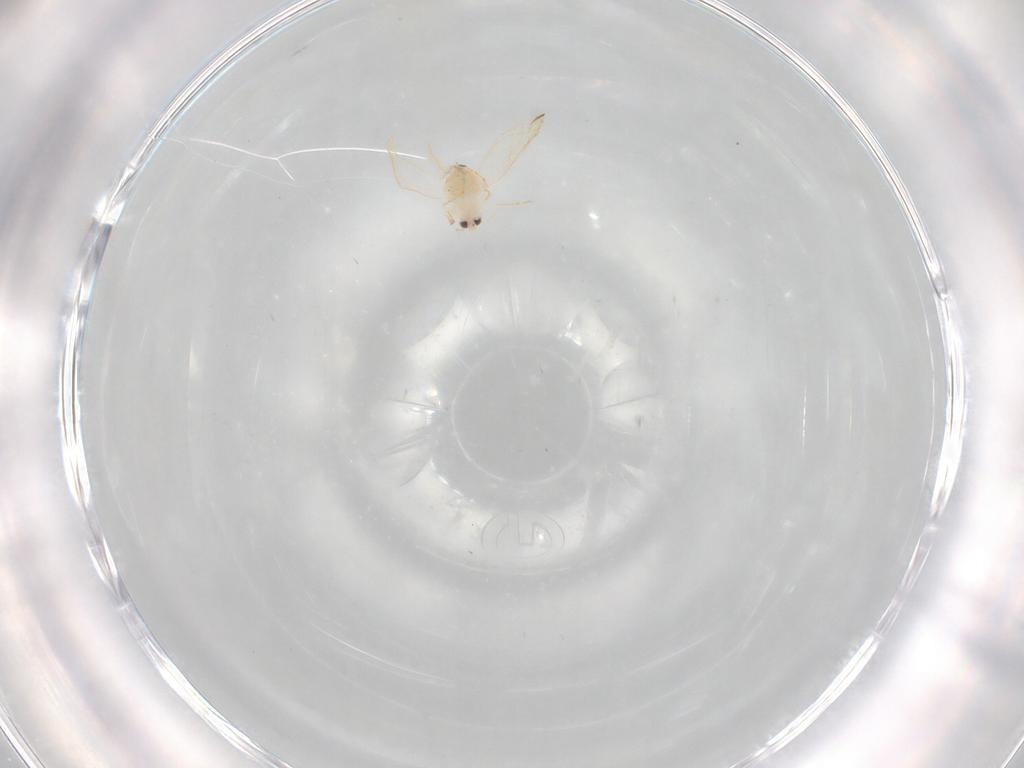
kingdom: Animalia
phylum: Arthropoda
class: Insecta
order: Hemiptera
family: Aleyrodidae
